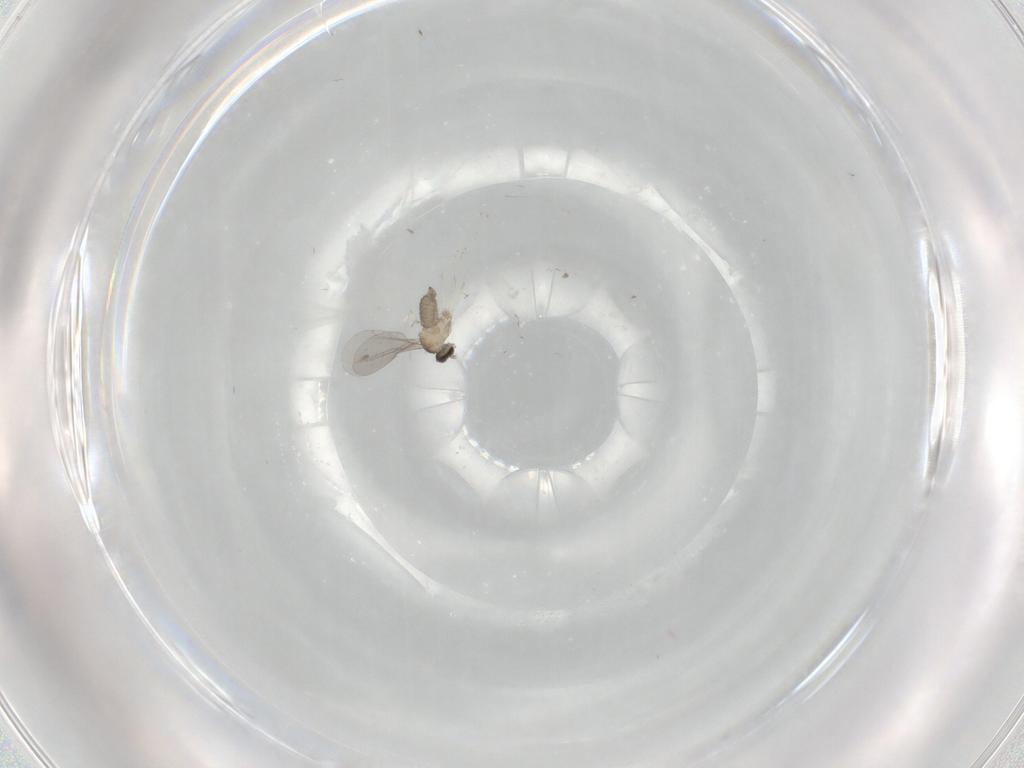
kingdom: Animalia
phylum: Arthropoda
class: Insecta
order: Diptera
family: Cecidomyiidae
